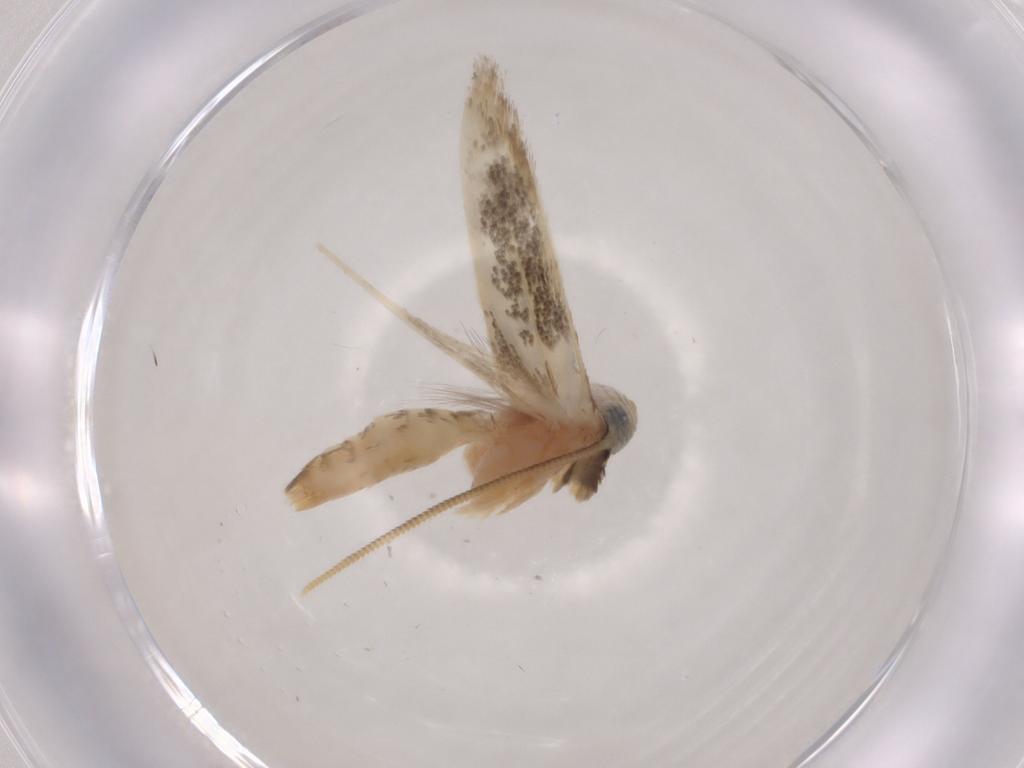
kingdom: Animalia
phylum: Arthropoda
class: Insecta
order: Lepidoptera
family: Opostegidae
